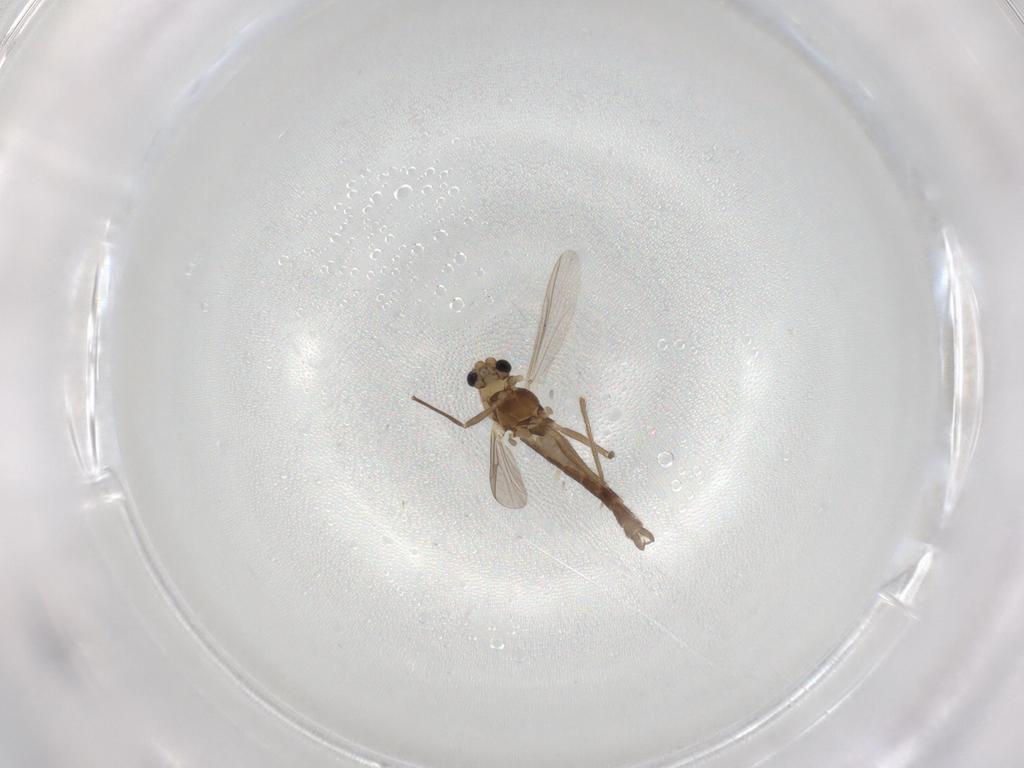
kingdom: Animalia
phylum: Arthropoda
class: Insecta
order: Diptera
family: Chironomidae
